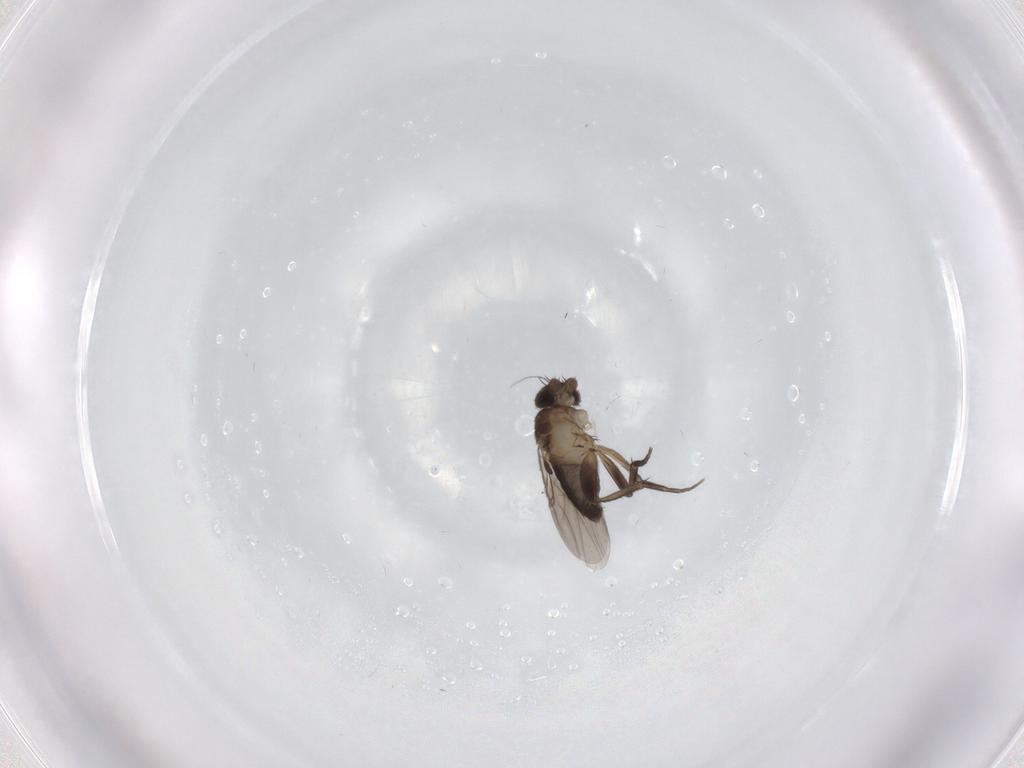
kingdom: Animalia
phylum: Arthropoda
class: Insecta
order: Diptera
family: Phoridae
